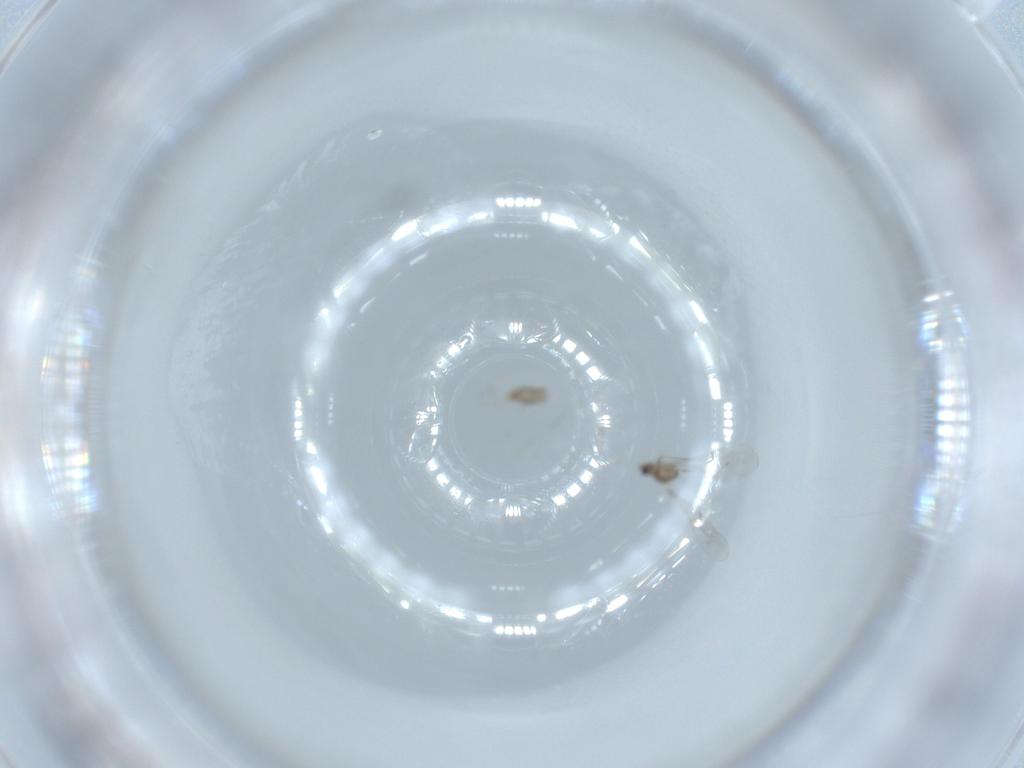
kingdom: Animalia
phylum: Arthropoda
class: Insecta
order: Diptera
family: Cecidomyiidae
